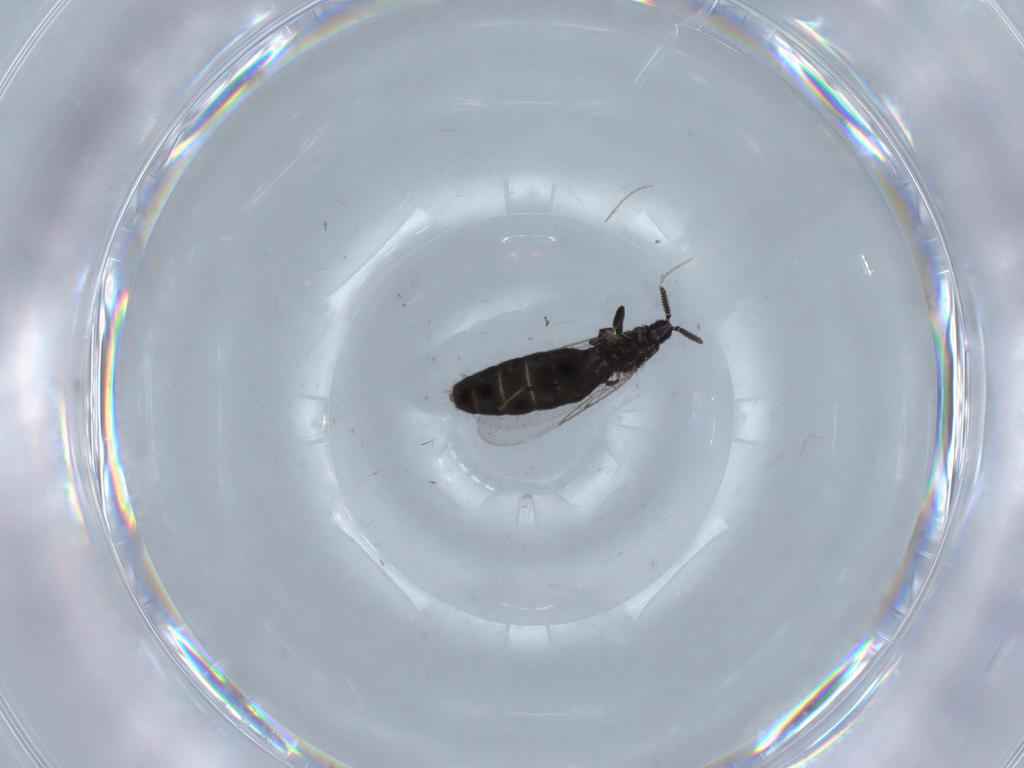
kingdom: Animalia
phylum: Arthropoda
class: Insecta
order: Diptera
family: Scatopsidae
